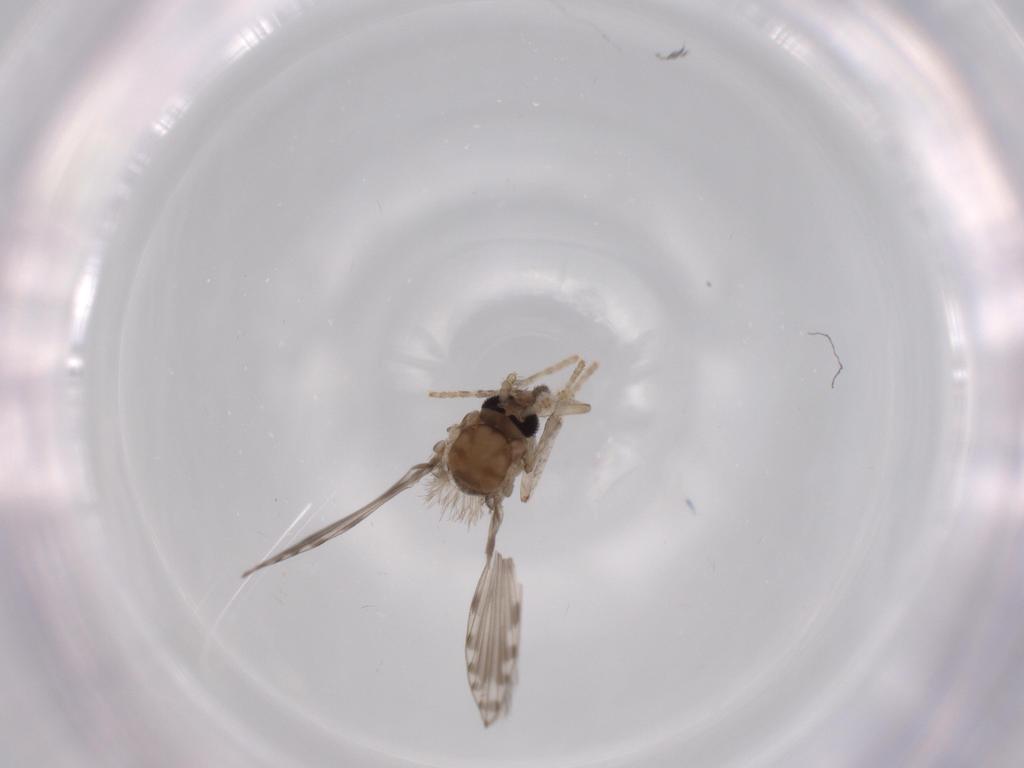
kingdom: Animalia
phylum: Arthropoda
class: Insecta
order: Diptera
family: Psychodidae
